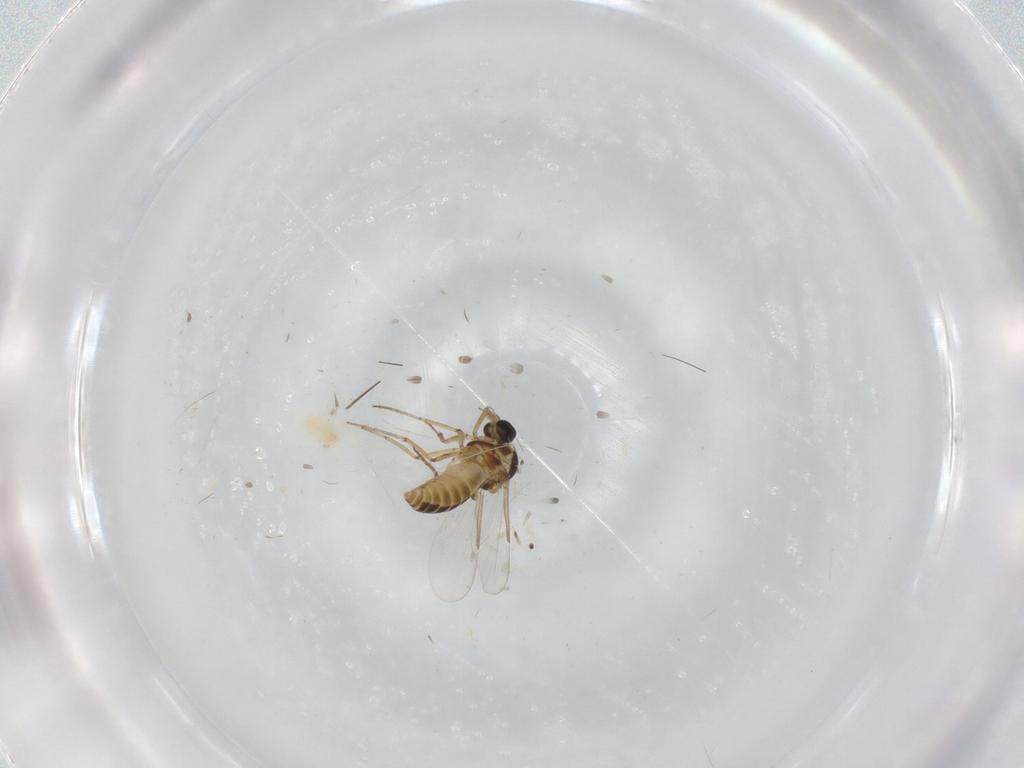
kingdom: Animalia
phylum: Arthropoda
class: Insecta
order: Diptera
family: Ceratopogonidae
